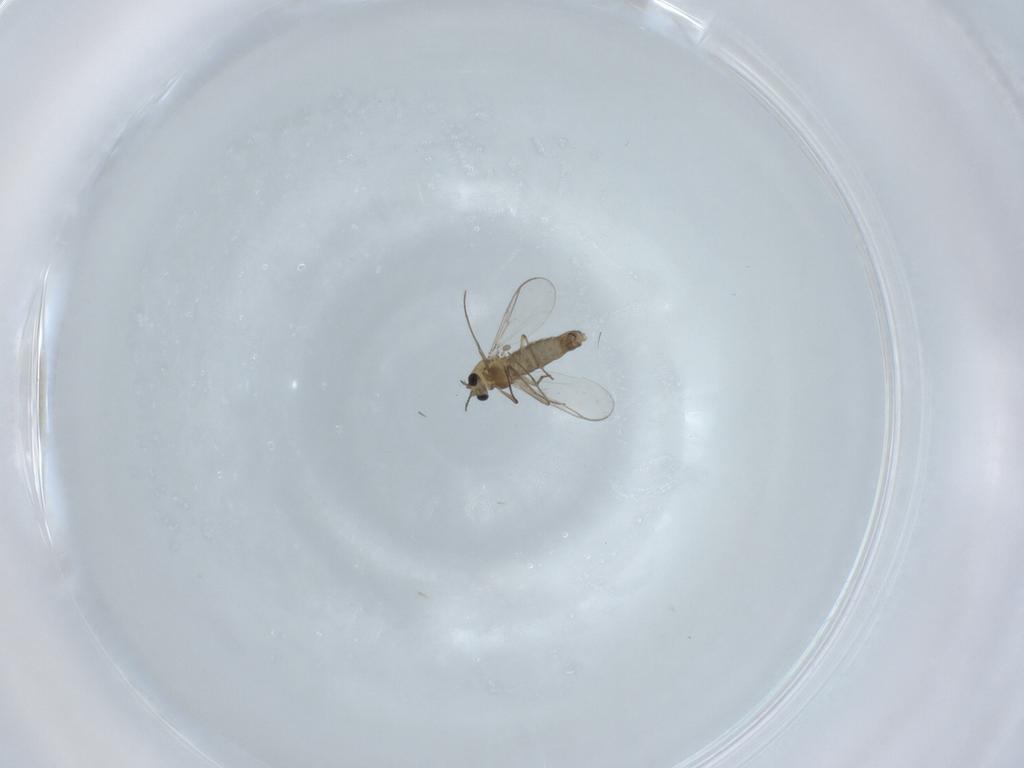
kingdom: Animalia
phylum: Arthropoda
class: Insecta
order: Diptera
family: Chironomidae
